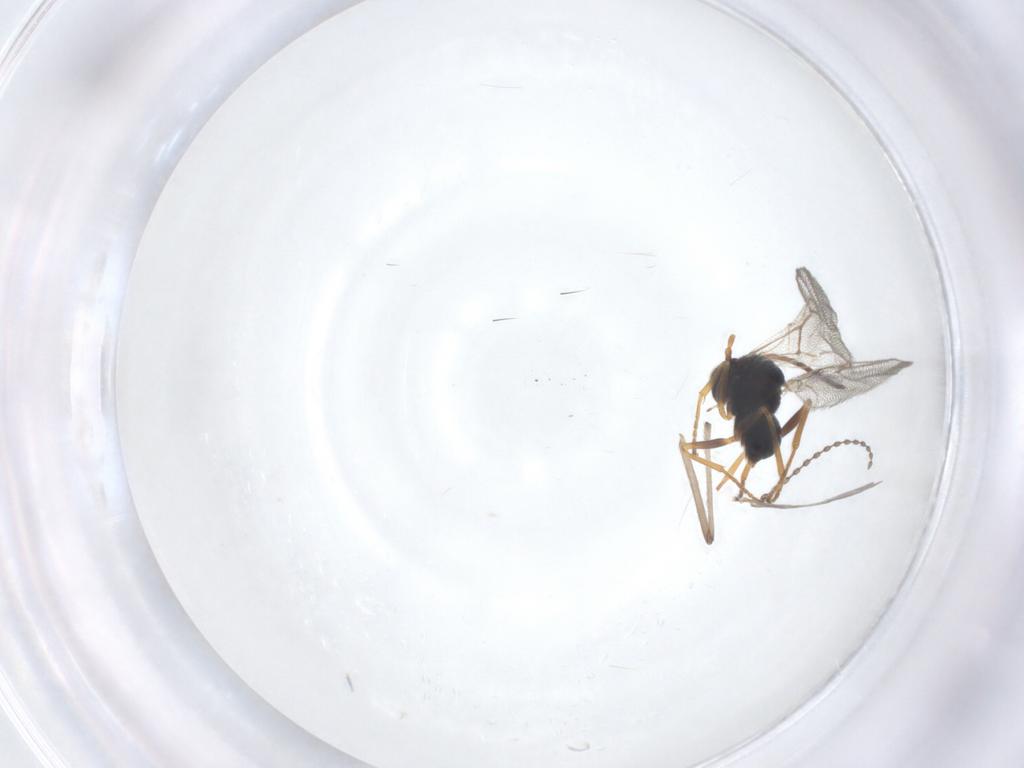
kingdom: Animalia
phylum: Arthropoda
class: Insecta
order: Hymenoptera
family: Cynipidae
